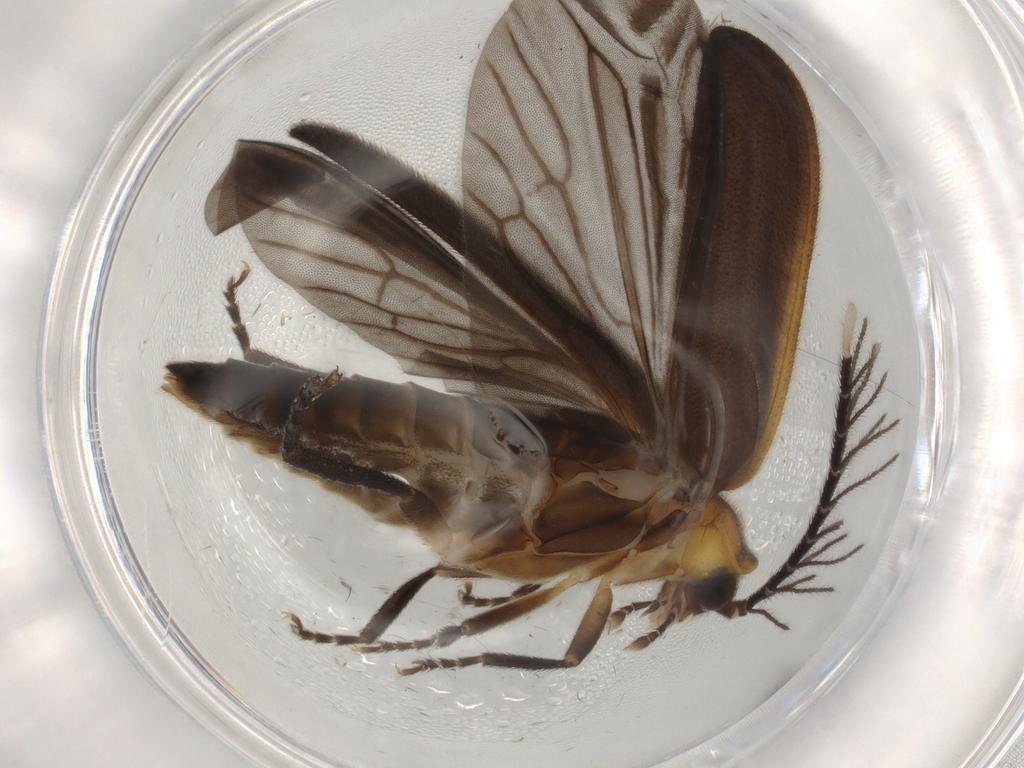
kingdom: Animalia
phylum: Arthropoda
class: Insecta
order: Coleoptera
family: Lampyridae
